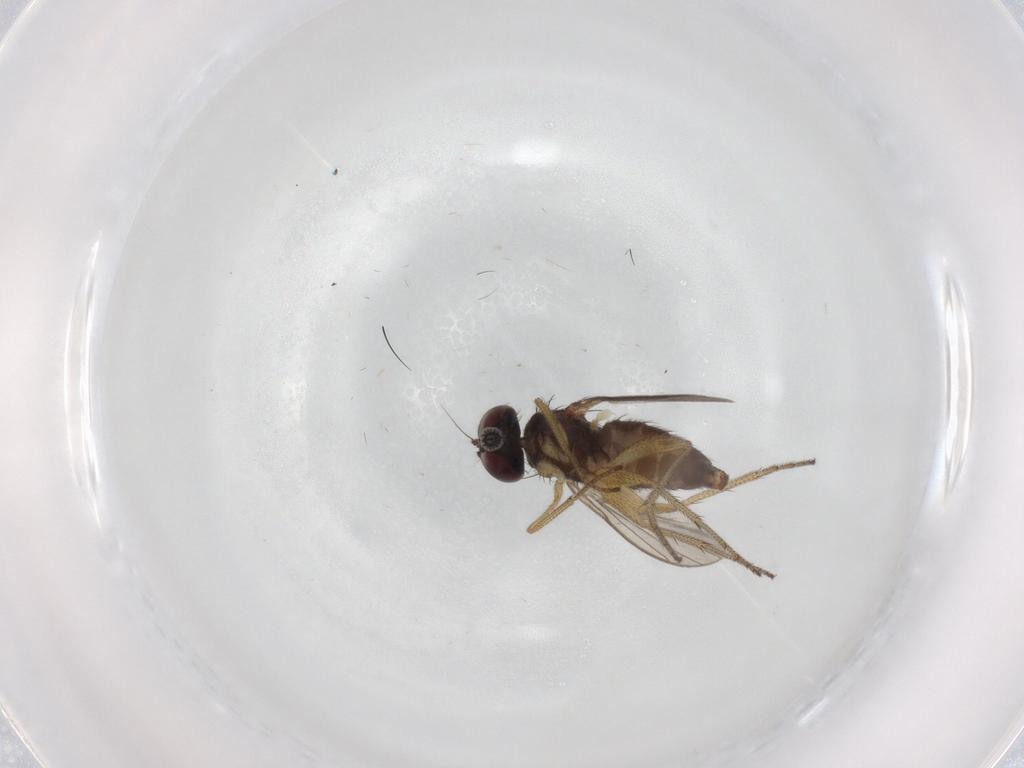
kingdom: Animalia
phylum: Arthropoda
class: Insecta
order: Diptera
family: Dolichopodidae
